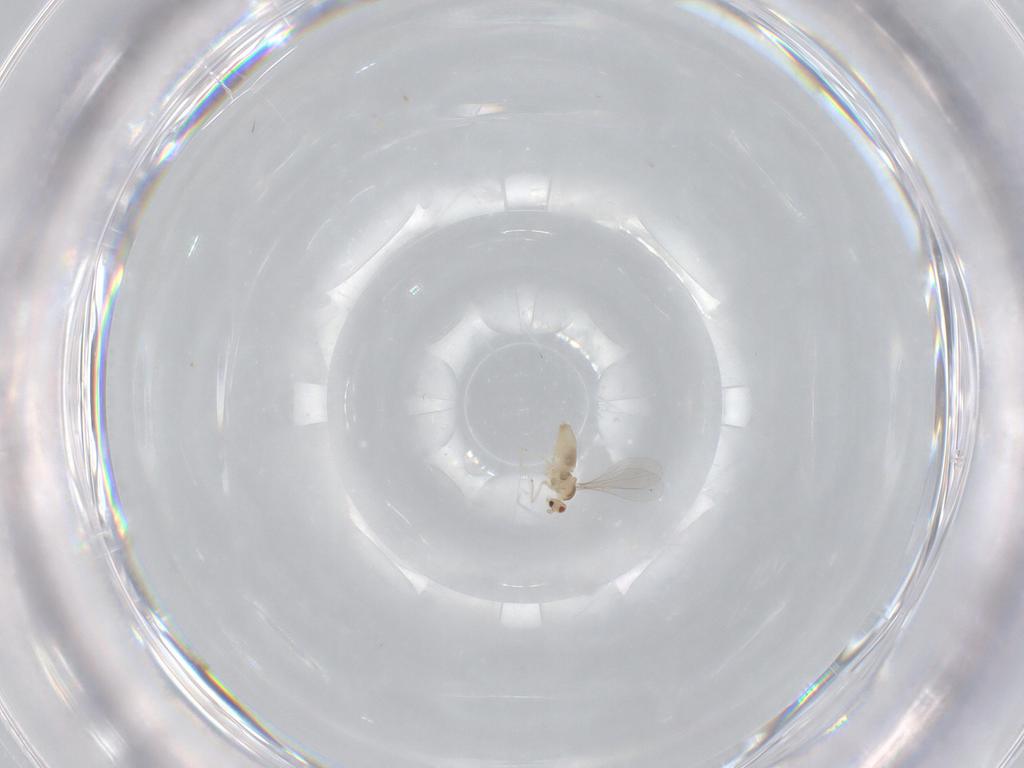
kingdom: Animalia
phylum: Arthropoda
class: Insecta
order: Diptera
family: Cecidomyiidae
